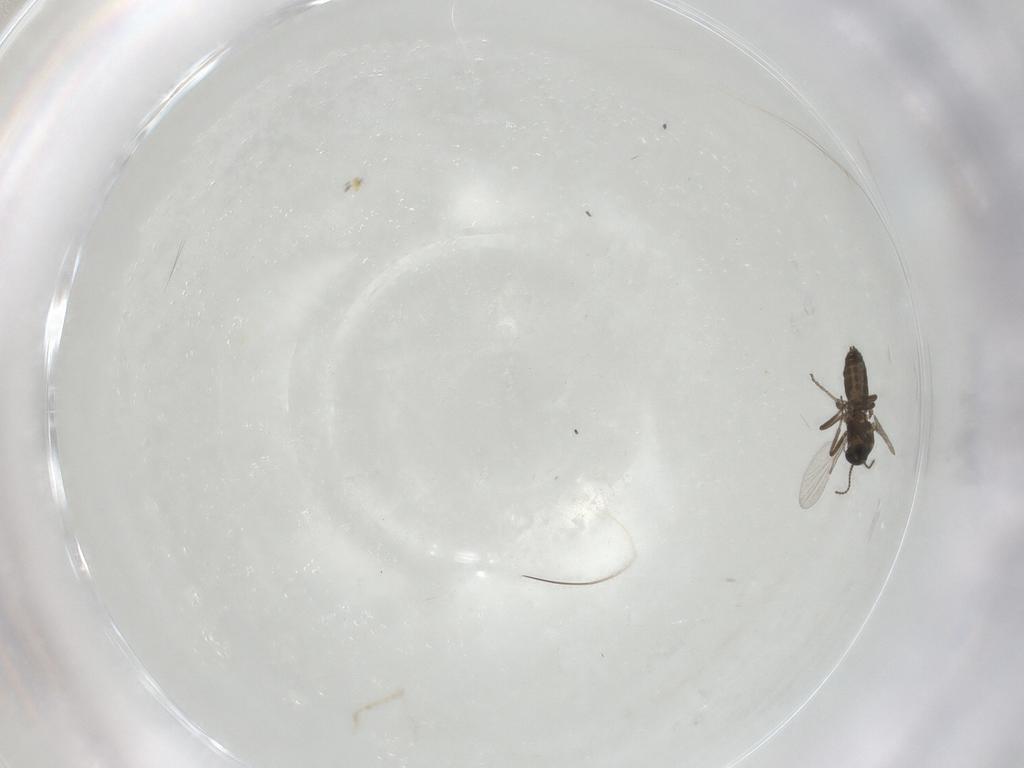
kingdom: Animalia
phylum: Arthropoda
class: Insecta
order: Diptera
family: Ceratopogonidae
